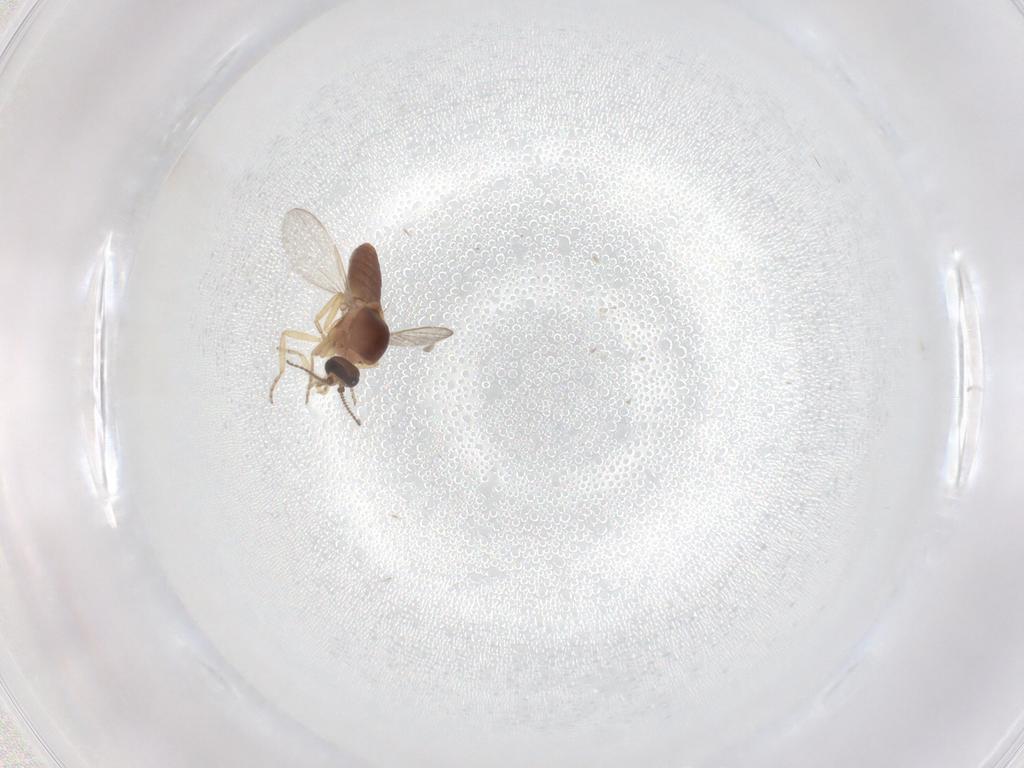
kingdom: Animalia
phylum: Arthropoda
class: Insecta
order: Diptera
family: Ceratopogonidae
